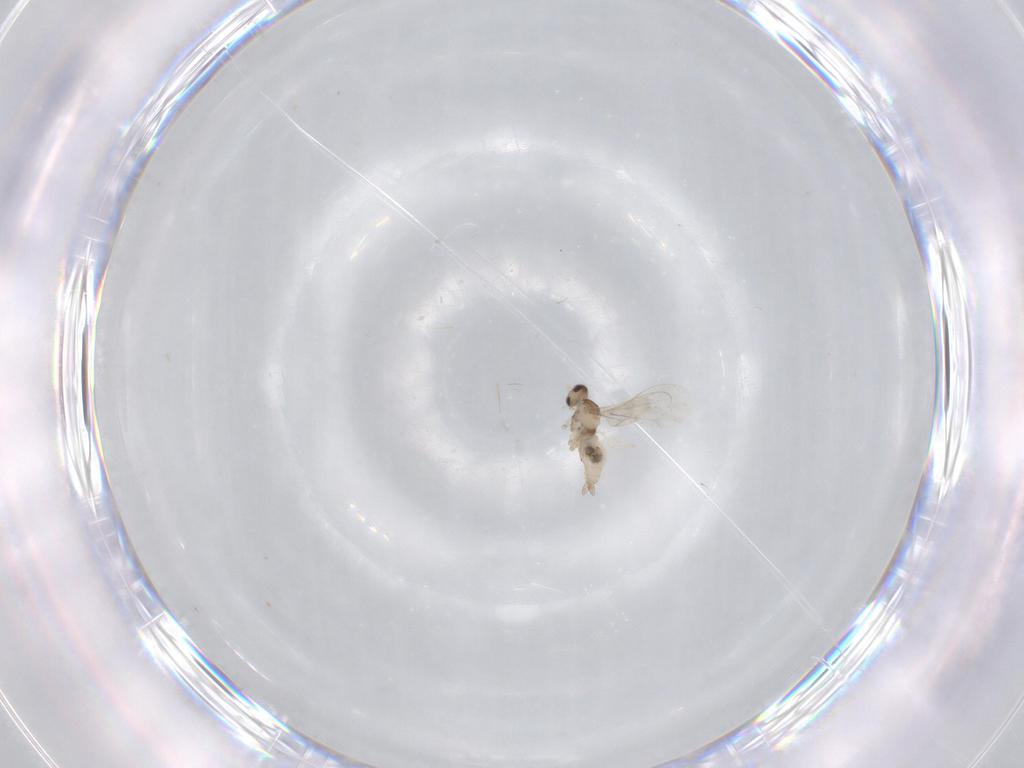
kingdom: Animalia
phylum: Arthropoda
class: Insecta
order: Diptera
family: Cecidomyiidae
